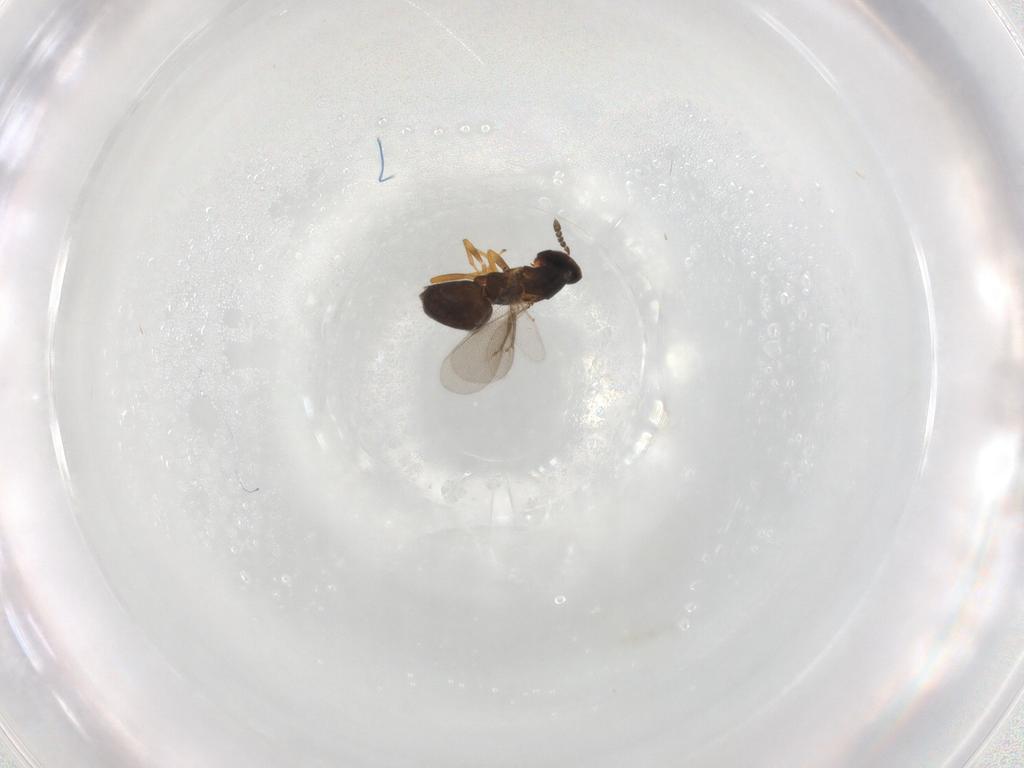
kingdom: Animalia
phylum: Arthropoda
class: Insecta
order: Hymenoptera
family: Eulophidae
